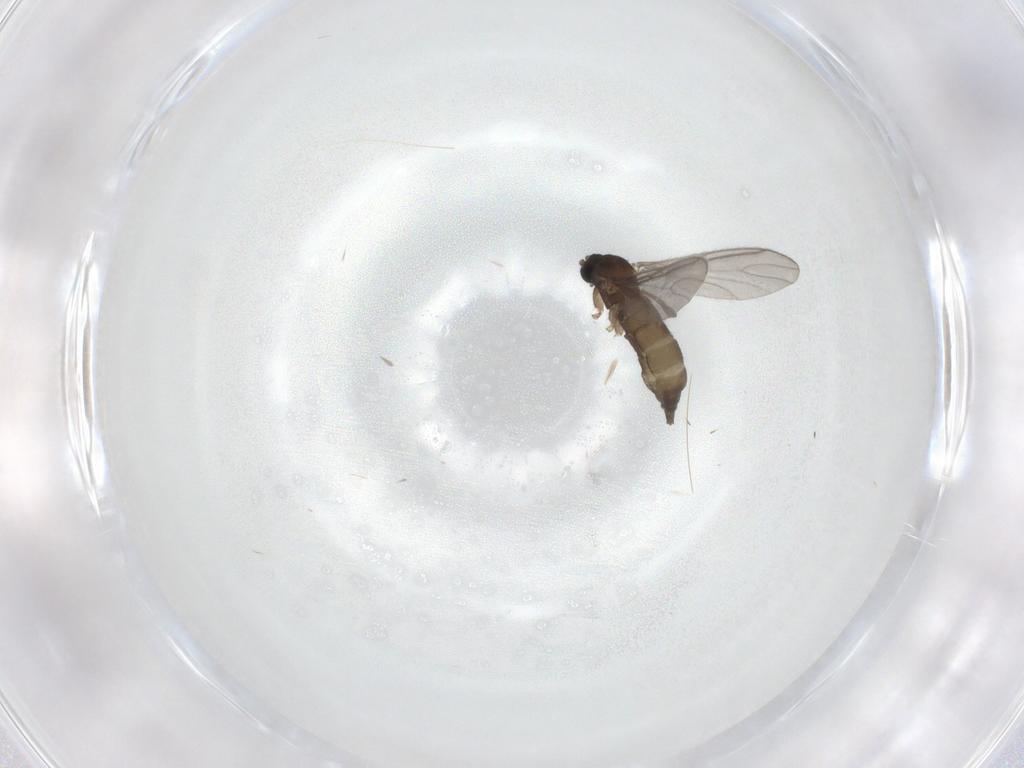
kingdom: Animalia
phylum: Arthropoda
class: Insecta
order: Diptera
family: Sciaridae
